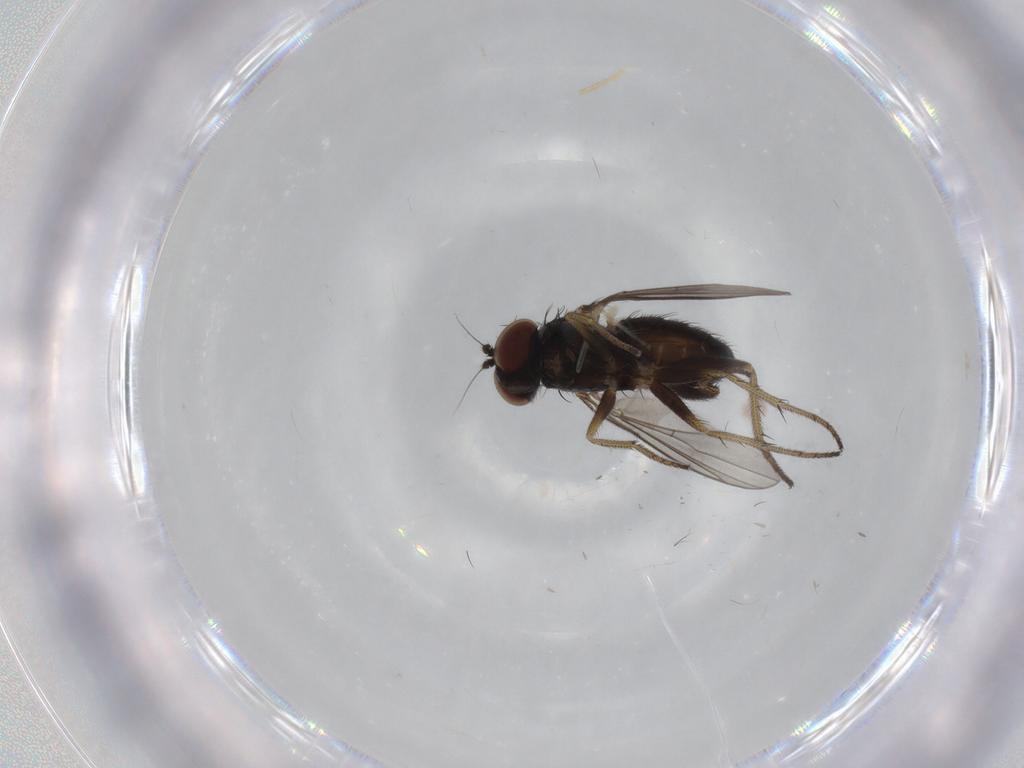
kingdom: Animalia
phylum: Arthropoda
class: Insecta
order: Diptera
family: Dolichopodidae
